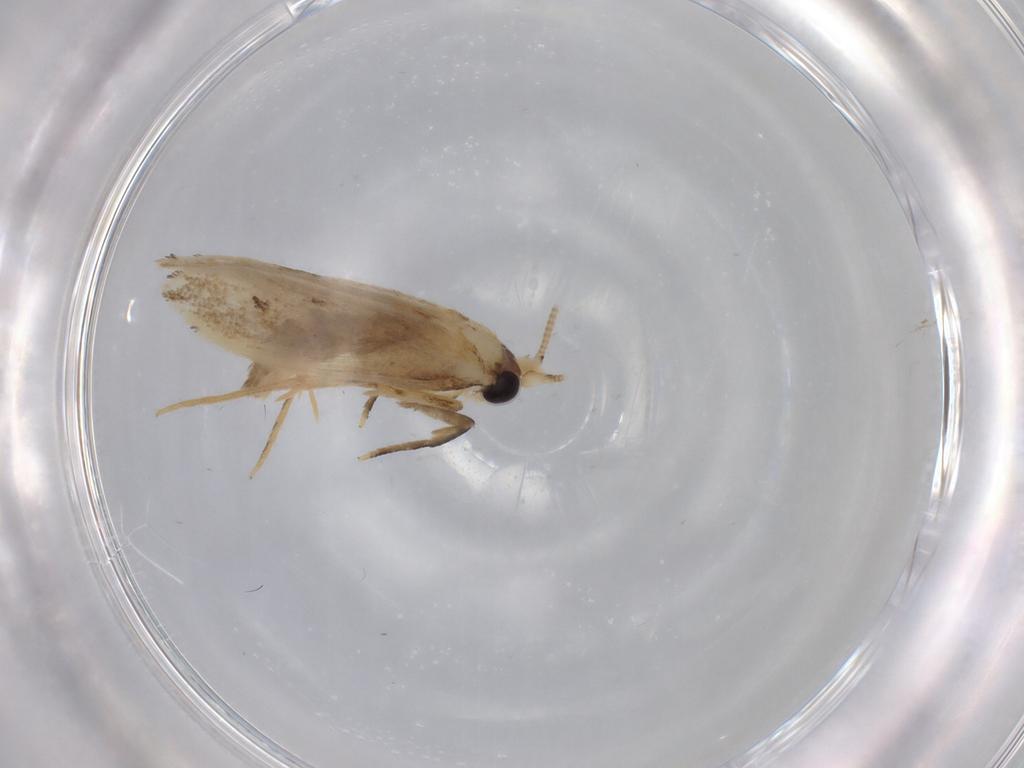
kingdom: Animalia
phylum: Arthropoda
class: Insecta
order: Lepidoptera
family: Nepticulidae
